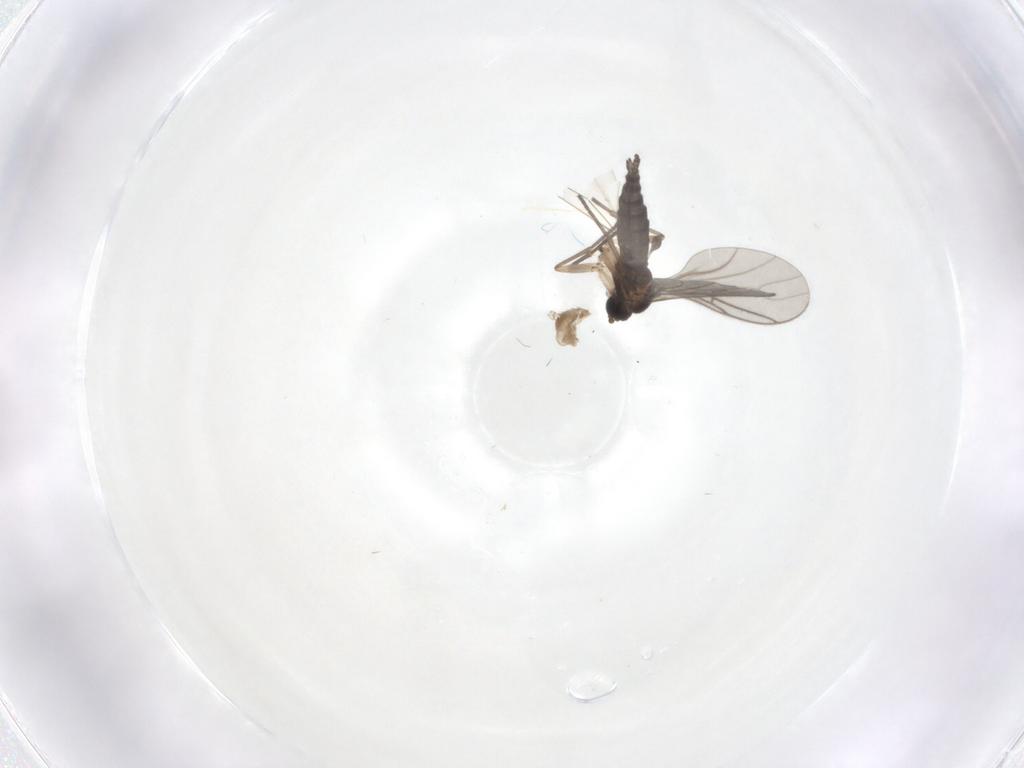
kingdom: Animalia
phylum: Arthropoda
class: Insecta
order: Diptera
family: Cecidomyiidae
